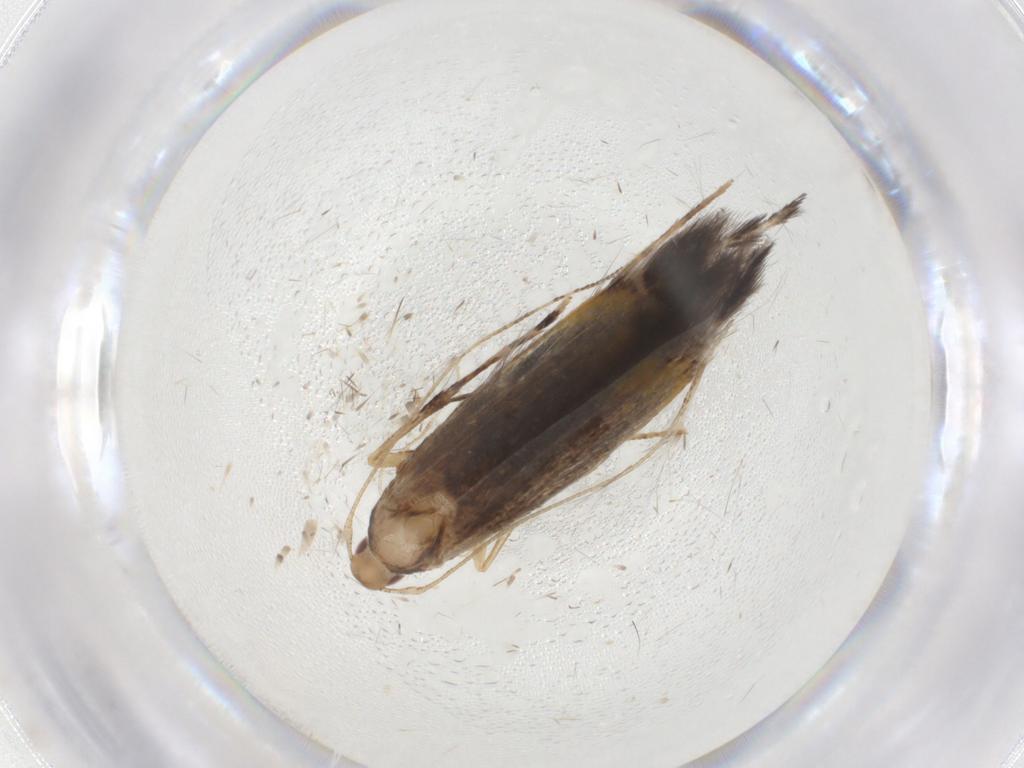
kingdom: Animalia
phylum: Arthropoda
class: Insecta
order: Lepidoptera
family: Cosmopterigidae
